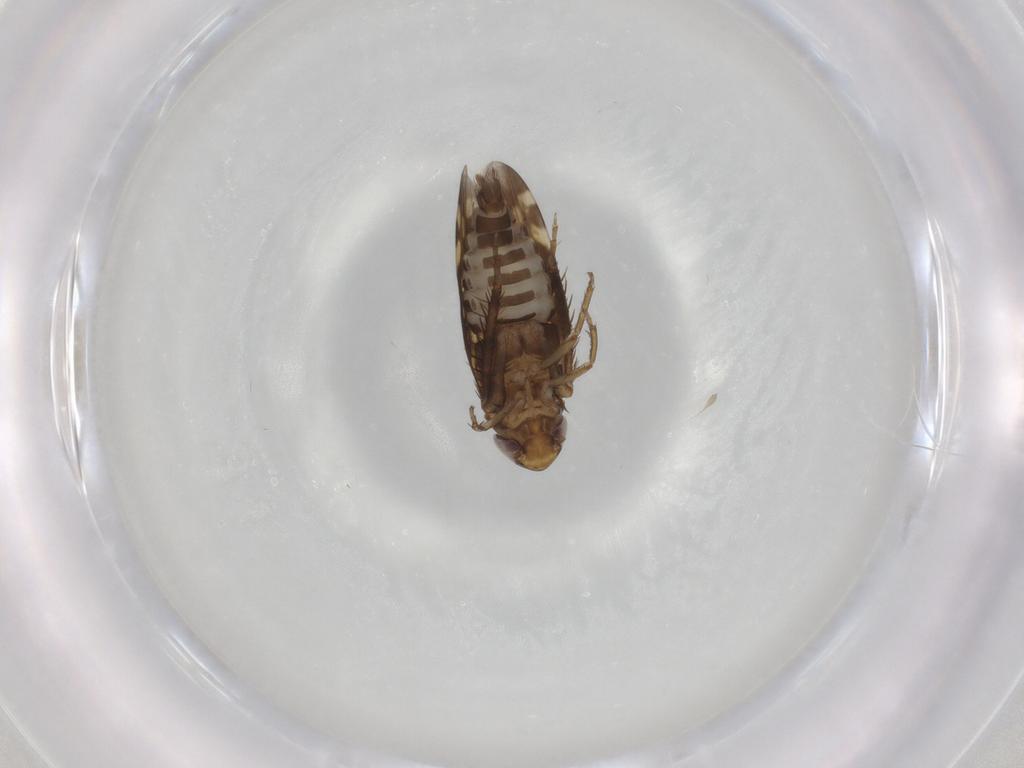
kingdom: Animalia
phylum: Arthropoda
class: Insecta
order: Hemiptera
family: Cicadellidae
